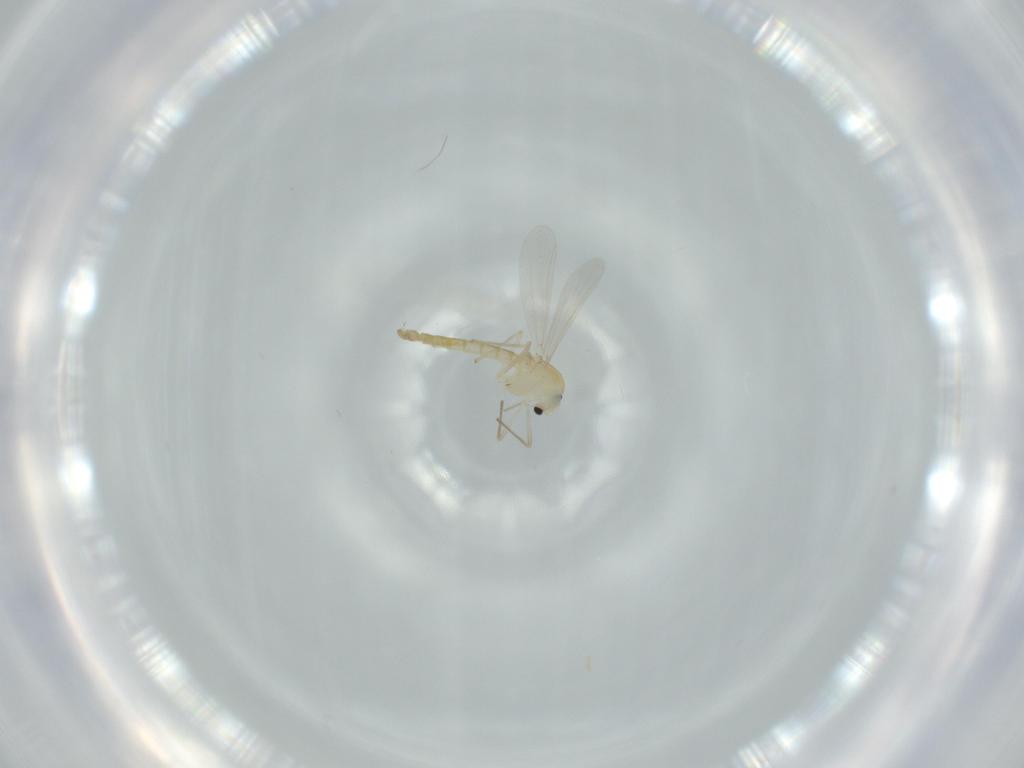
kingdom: Animalia
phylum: Arthropoda
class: Insecta
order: Diptera
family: Chironomidae
